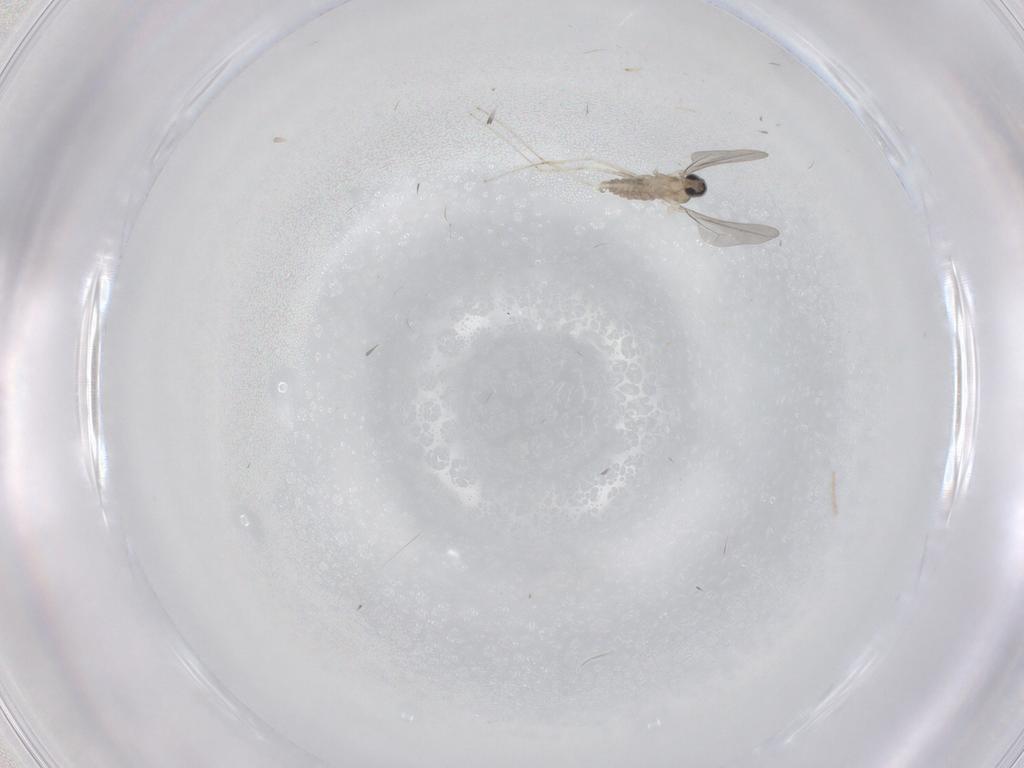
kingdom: Animalia
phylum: Arthropoda
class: Insecta
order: Diptera
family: Cecidomyiidae
